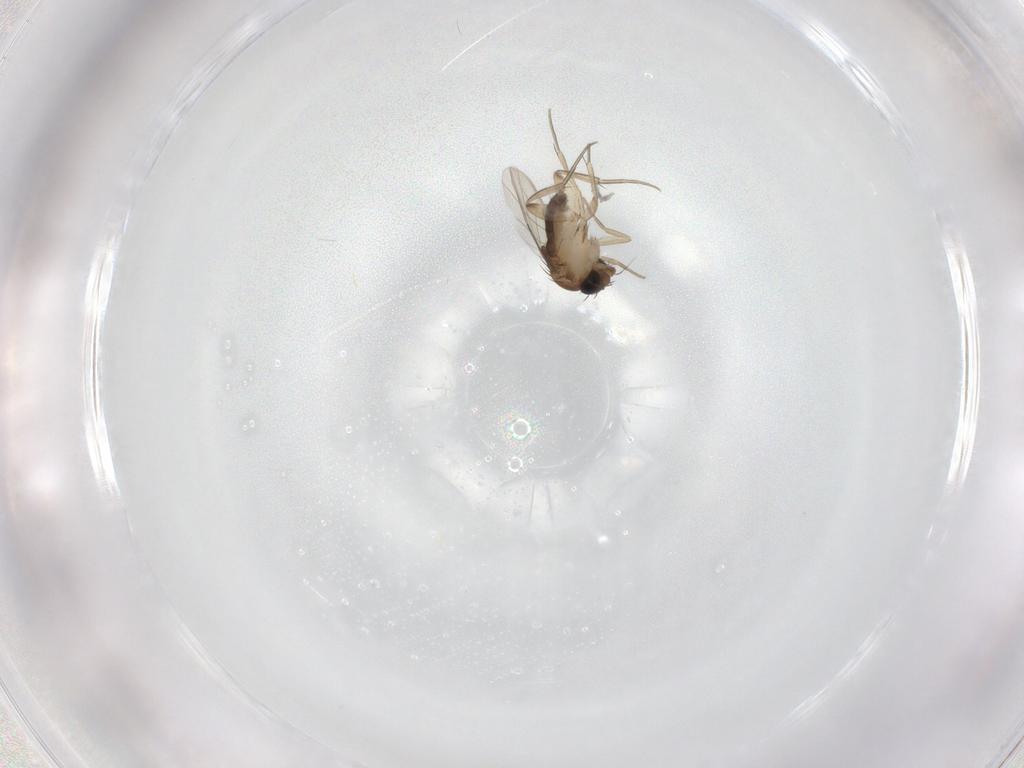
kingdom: Animalia
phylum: Arthropoda
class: Insecta
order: Diptera
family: Phoridae
